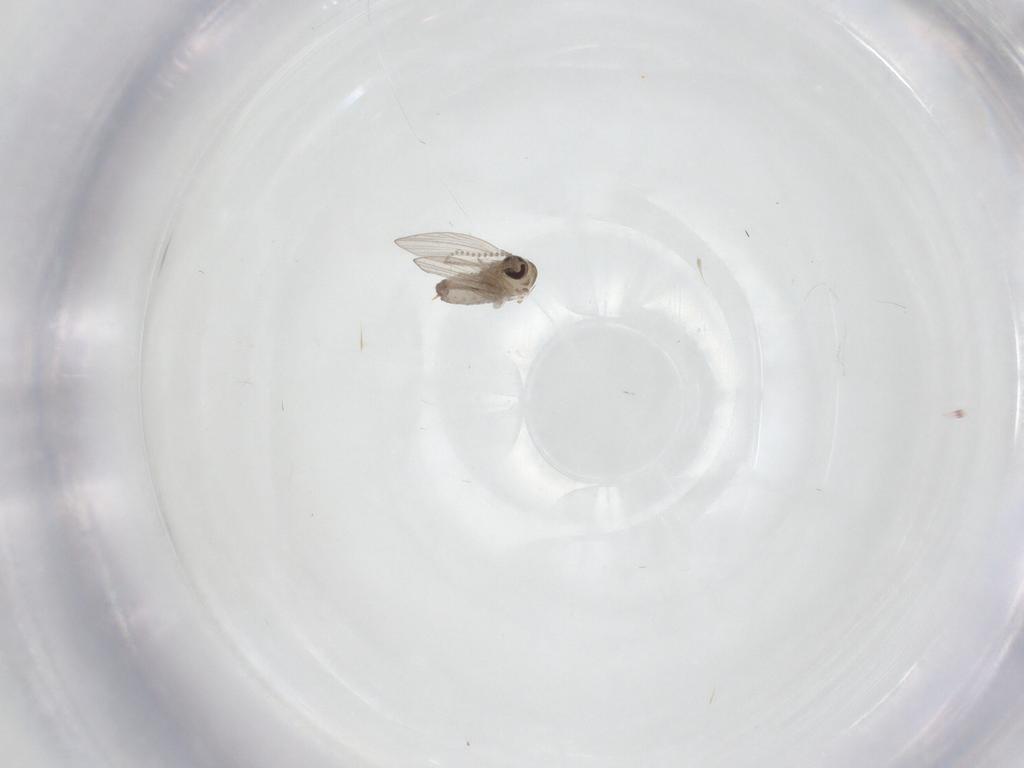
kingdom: Animalia
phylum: Arthropoda
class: Insecta
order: Diptera
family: Psychodidae
